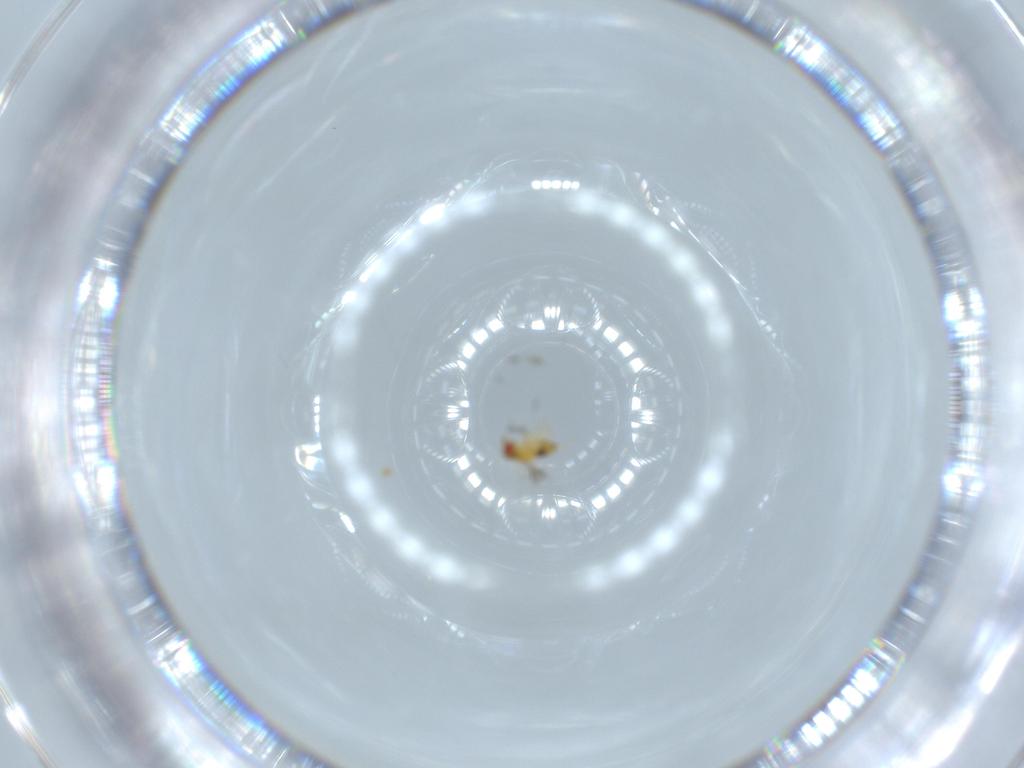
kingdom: Animalia
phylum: Arthropoda
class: Insecta
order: Hymenoptera
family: Trichogrammatidae
